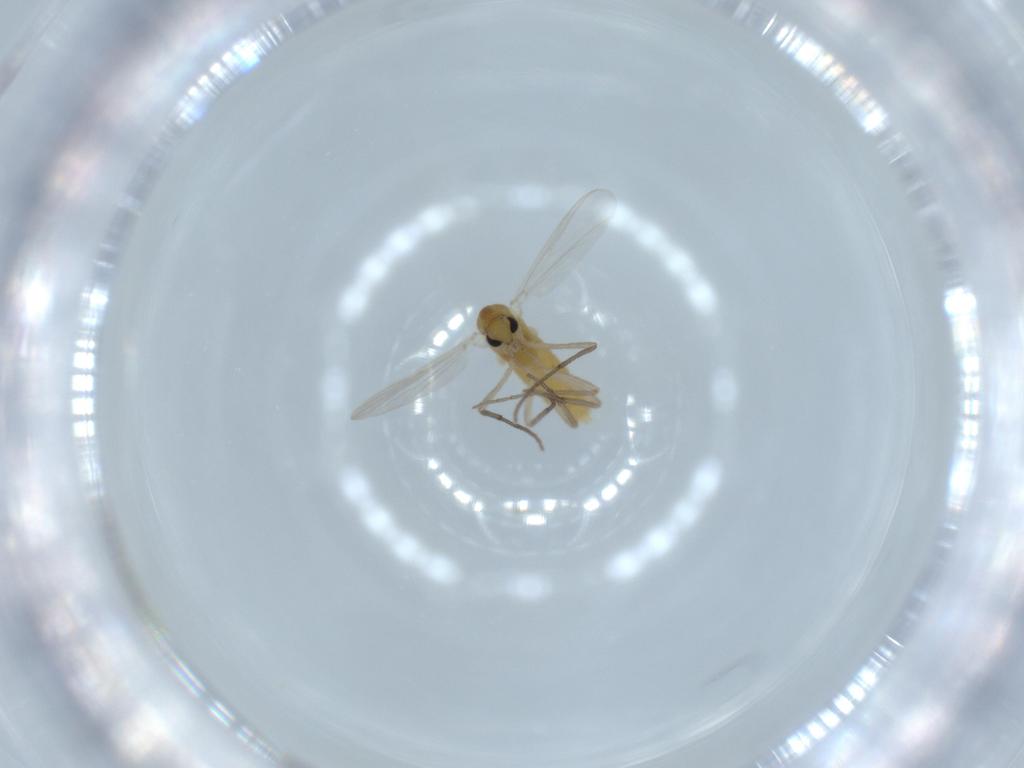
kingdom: Animalia
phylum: Arthropoda
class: Insecta
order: Diptera
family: Chironomidae
